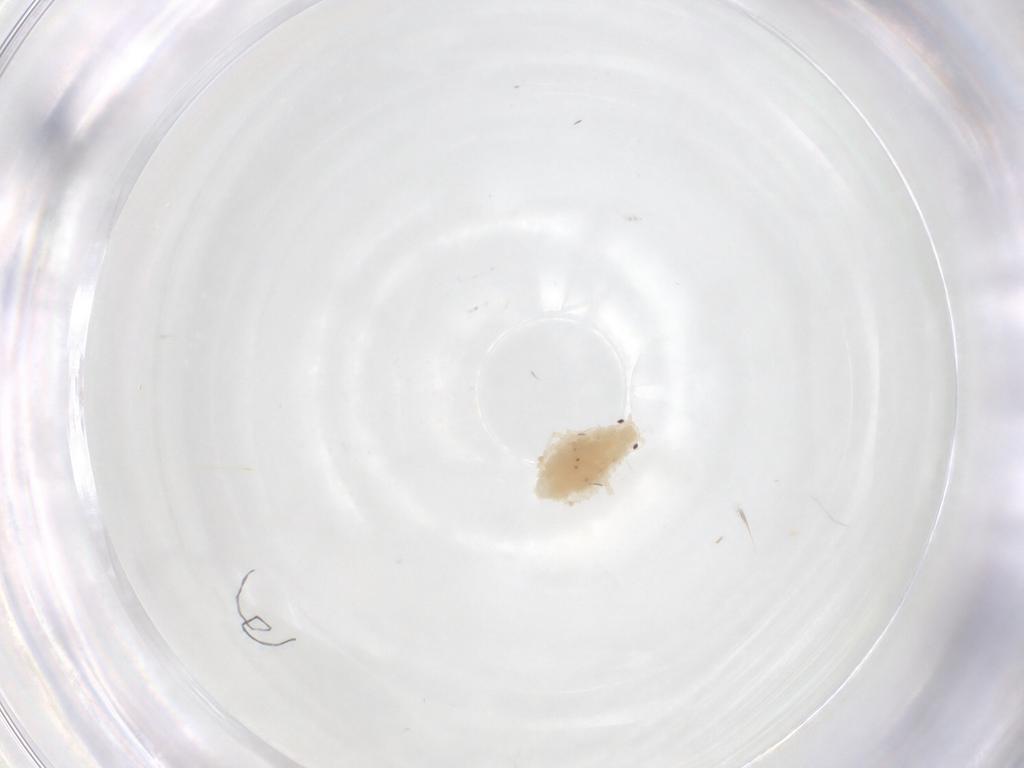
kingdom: Animalia
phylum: Arthropoda
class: Insecta
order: Hemiptera
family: Aphididae
